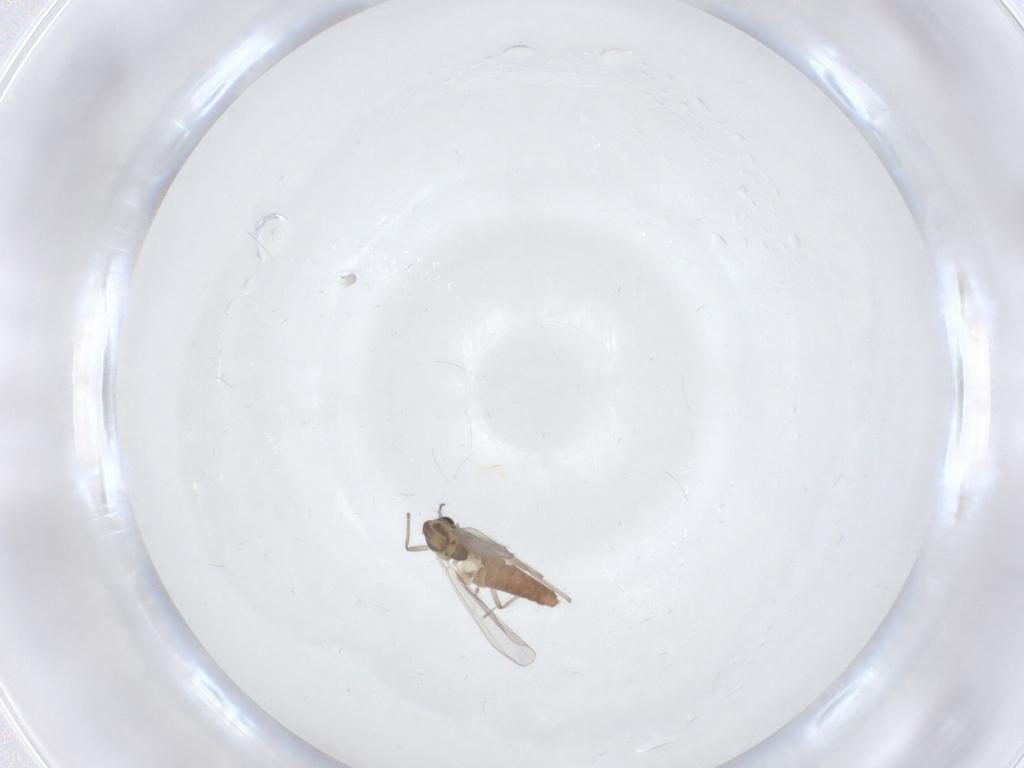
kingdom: Animalia
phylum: Arthropoda
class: Insecta
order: Diptera
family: Chironomidae
